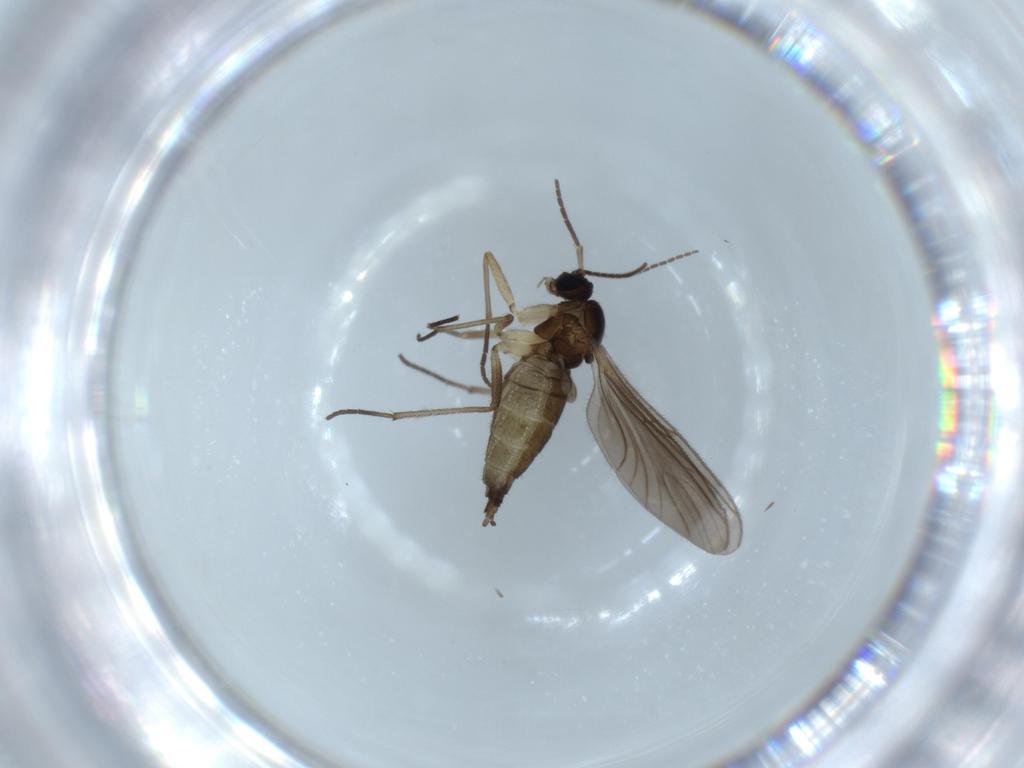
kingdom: Animalia
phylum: Arthropoda
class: Insecta
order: Diptera
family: Sciaridae
